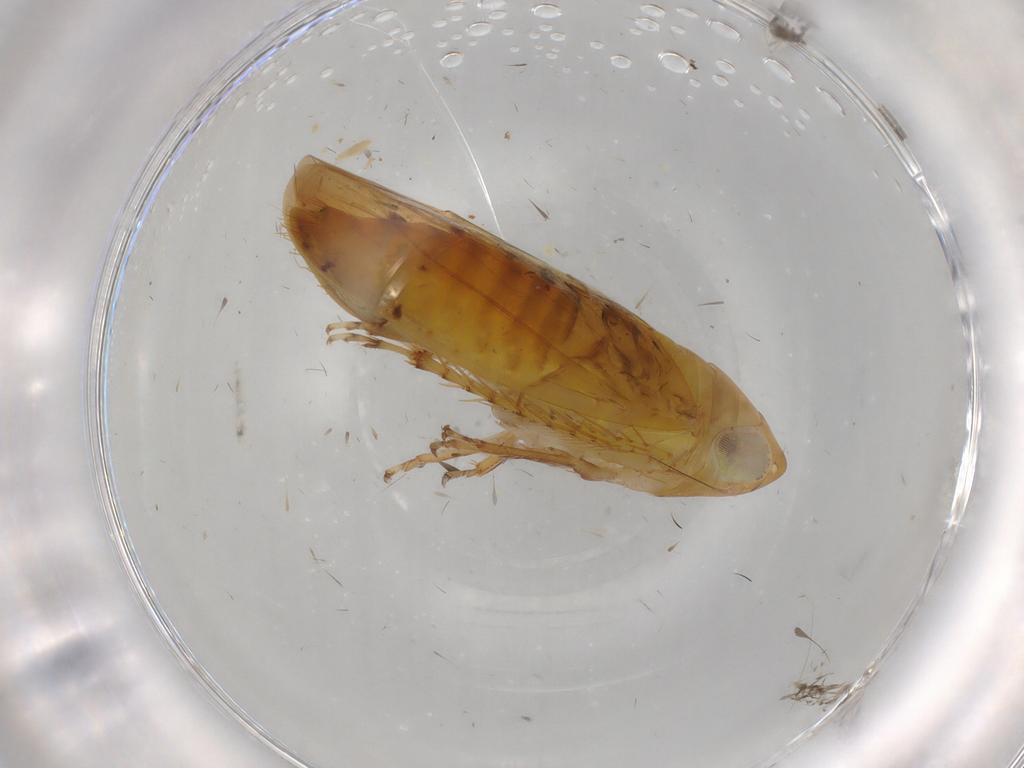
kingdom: Animalia
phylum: Arthropoda
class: Insecta
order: Hemiptera
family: Cicadellidae
